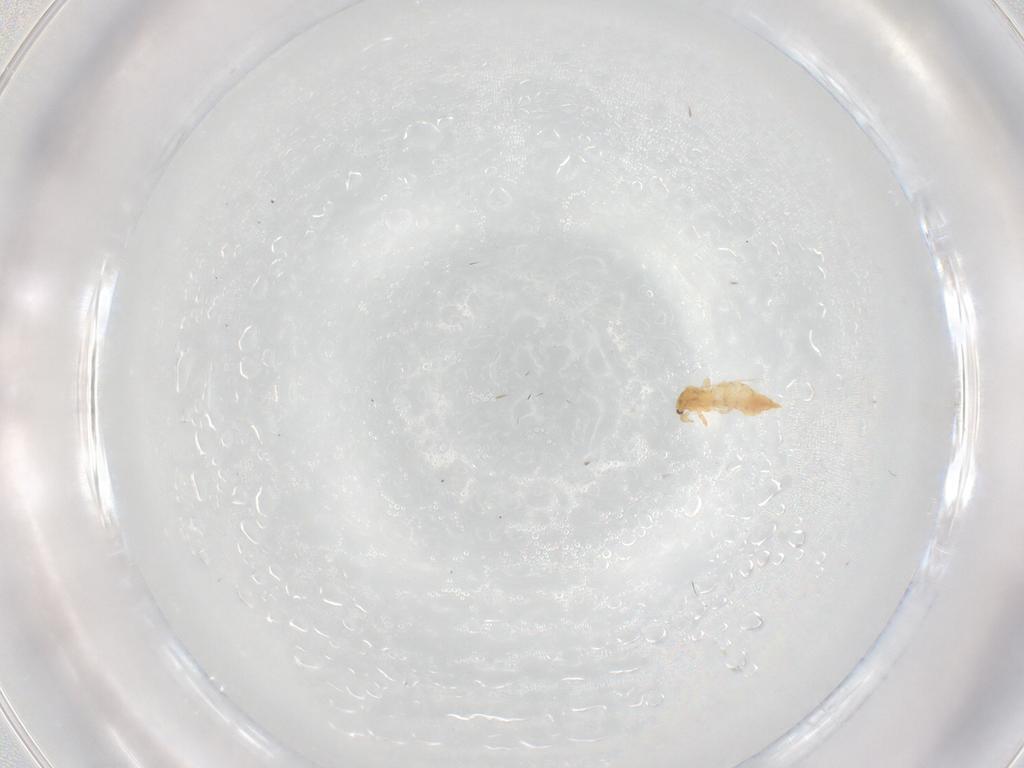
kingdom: Animalia
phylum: Arthropoda
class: Insecta
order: Thysanoptera
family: Thripidae
